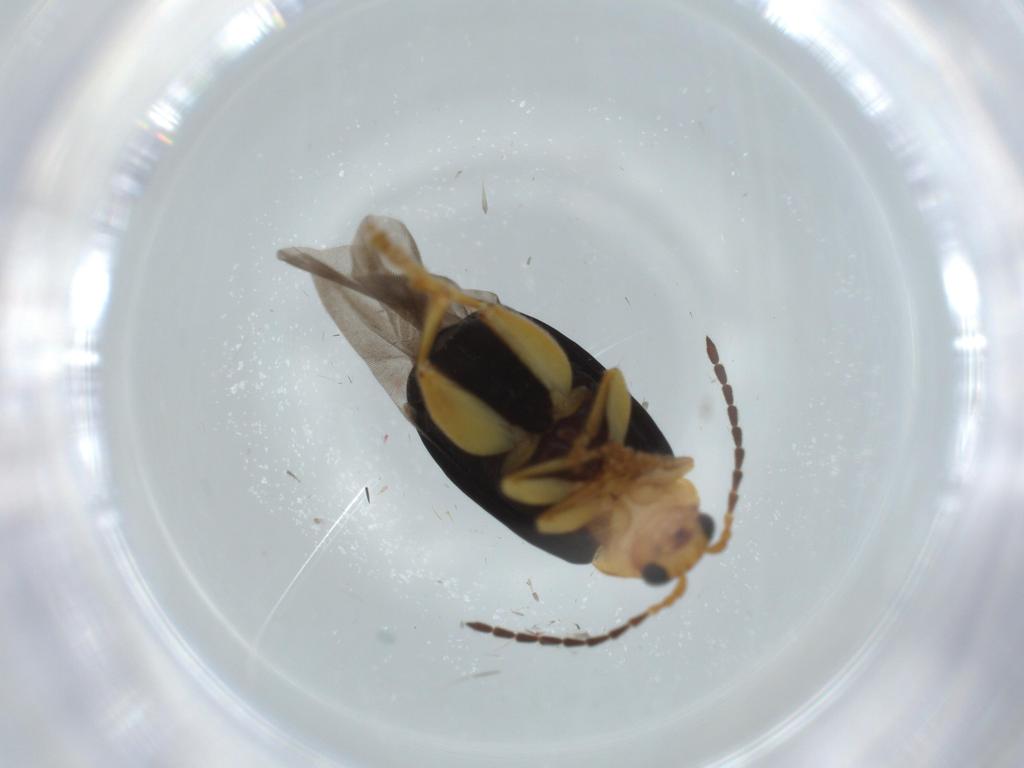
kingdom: Animalia
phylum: Arthropoda
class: Insecta
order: Coleoptera
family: Chrysomelidae
